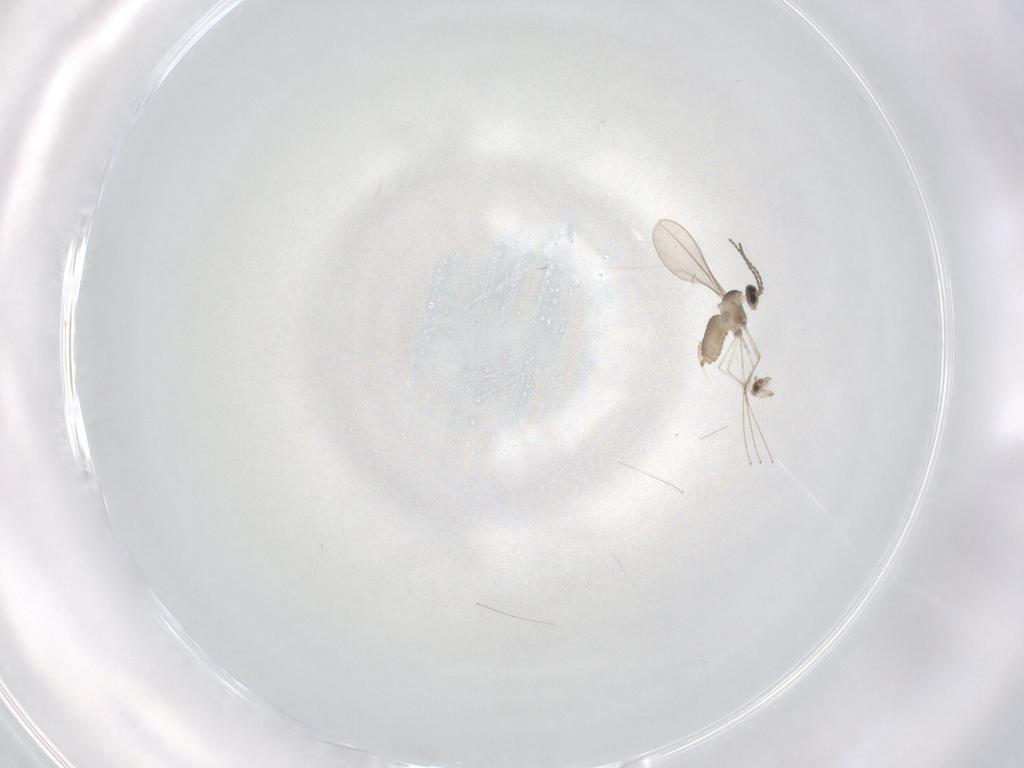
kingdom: Animalia
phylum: Arthropoda
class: Insecta
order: Diptera
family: Cecidomyiidae
